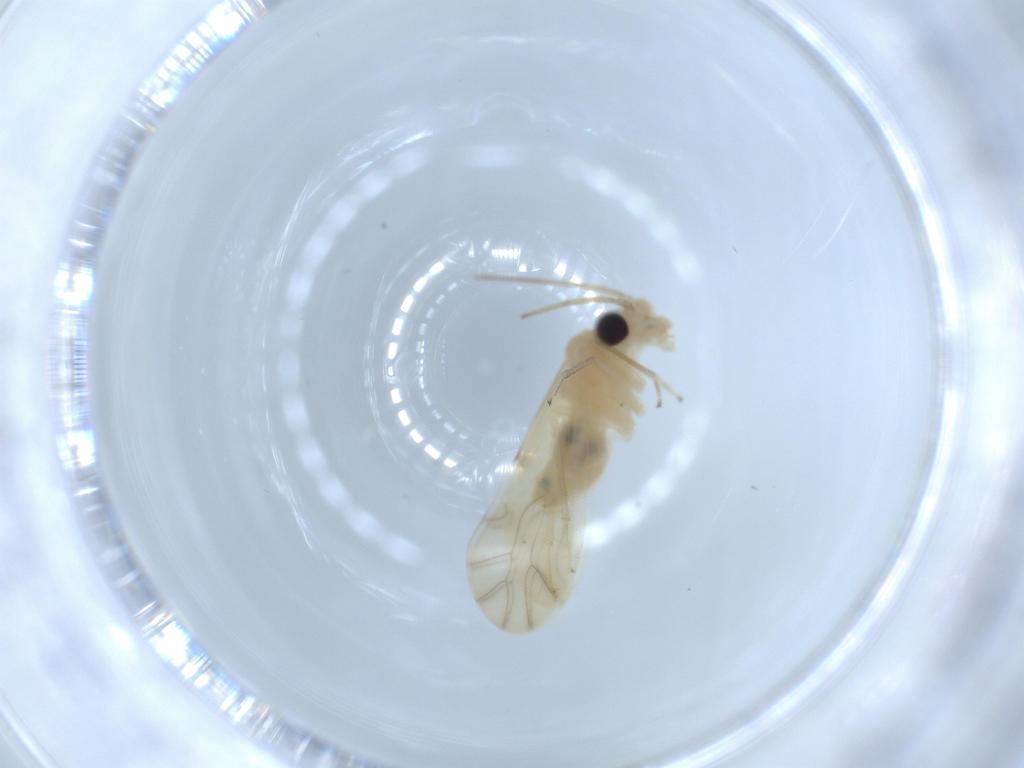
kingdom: Animalia
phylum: Arthropoda
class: Insecta
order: Psocodea
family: Caeciliusidae
